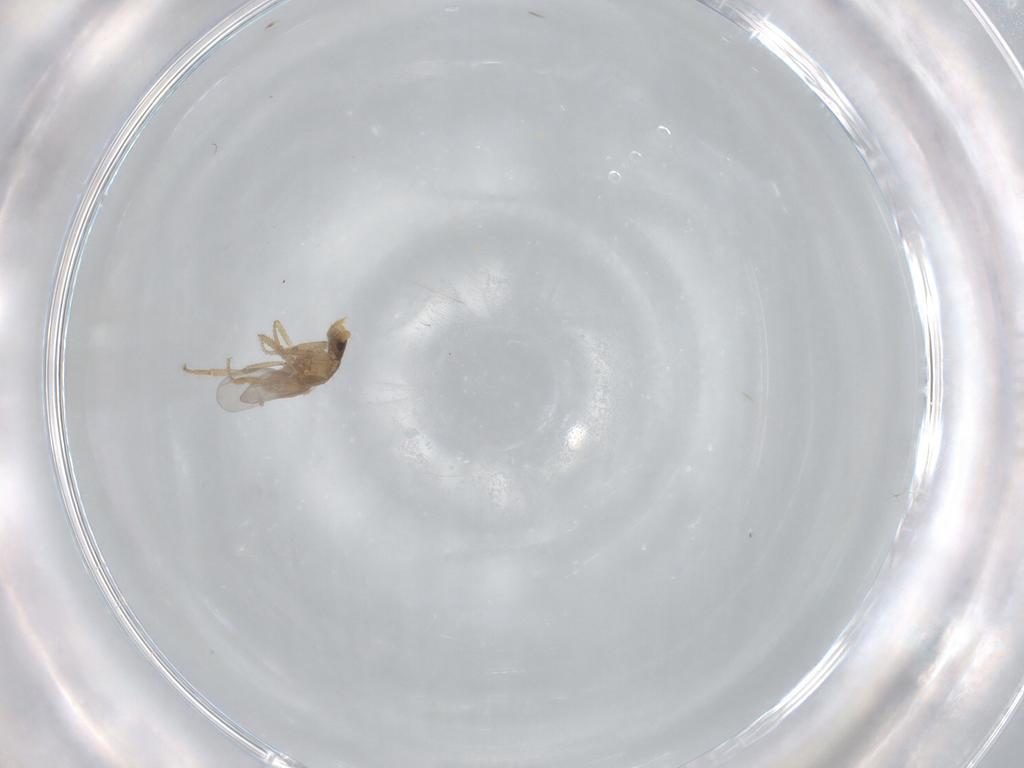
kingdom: Animalia
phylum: Arthropoda
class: Insecta
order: Diptera
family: Phoridae
